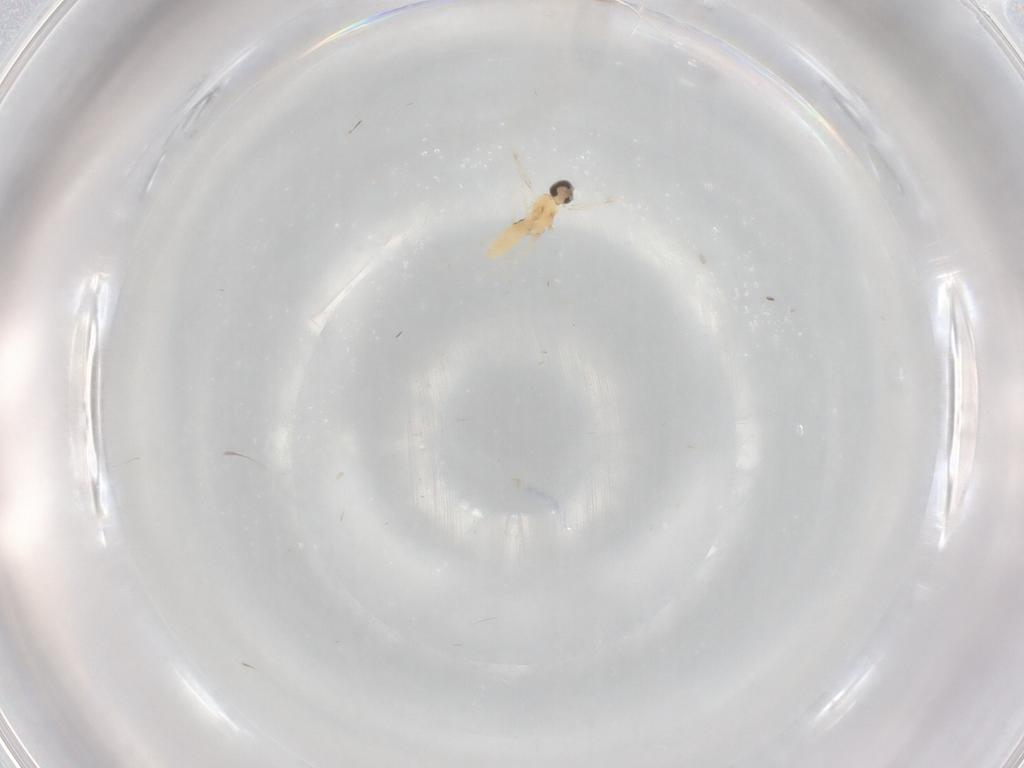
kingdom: Animalia
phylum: Arthropoda
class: Insecta
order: Diptera
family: Cecidomyiidae
